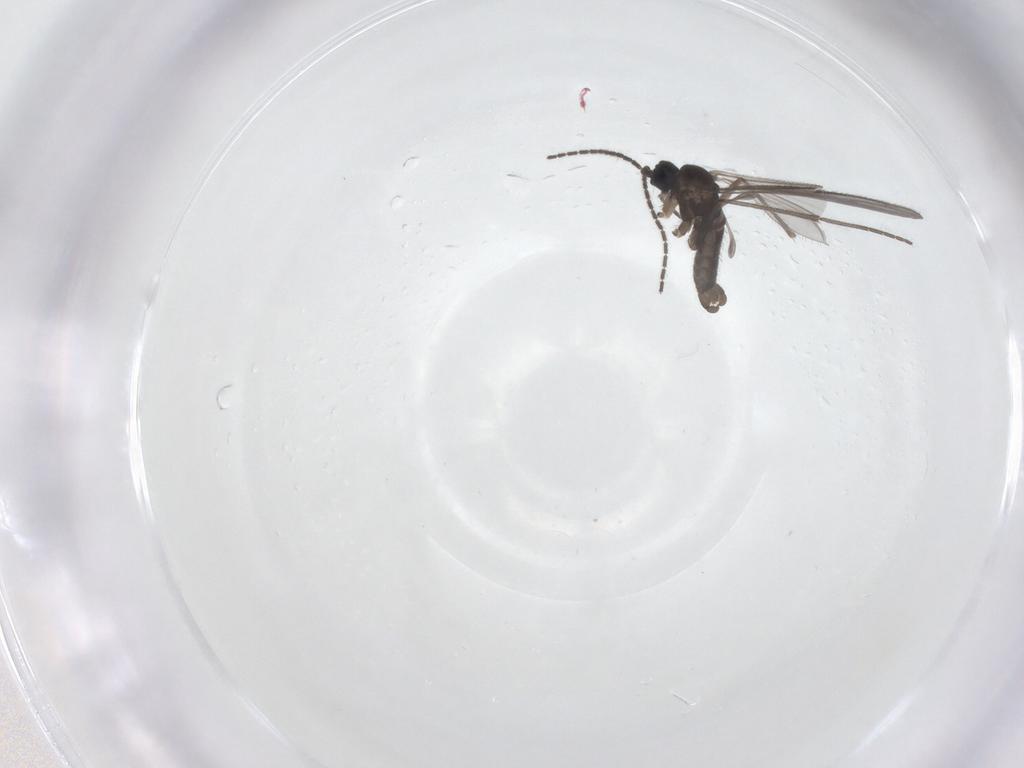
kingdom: Animalia
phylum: Arthropoda
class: Insecta
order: Diptera
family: Sciaridae
